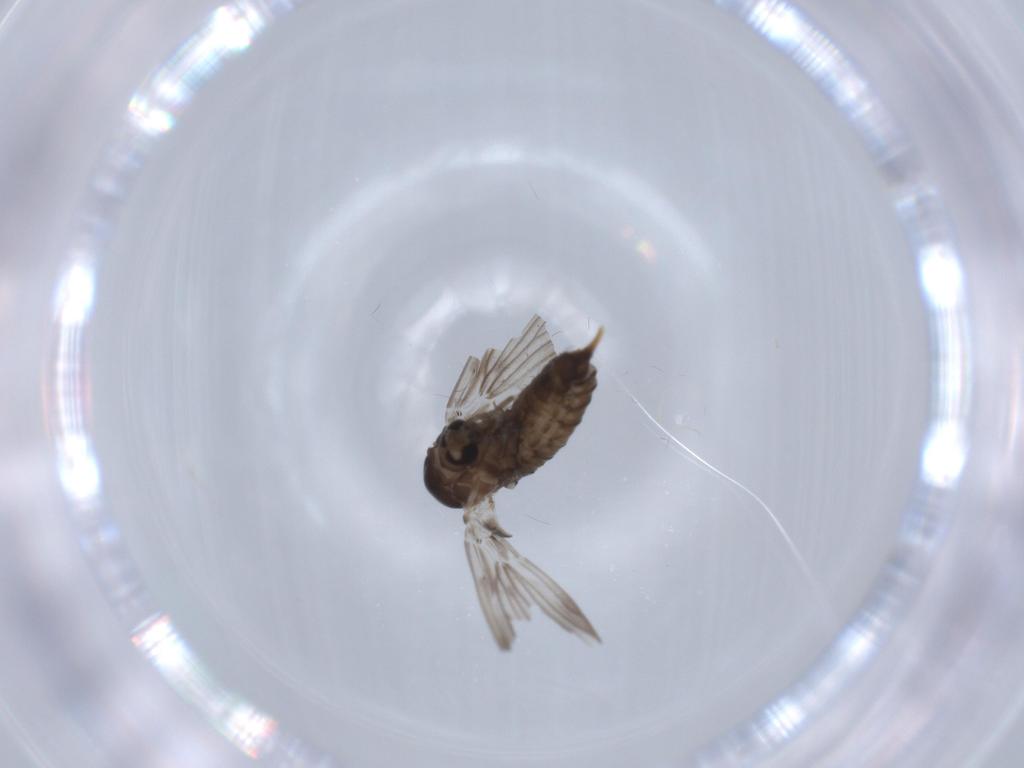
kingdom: Animalia
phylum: Arthropoda
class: Insecta
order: Diptera
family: Psychodidae
